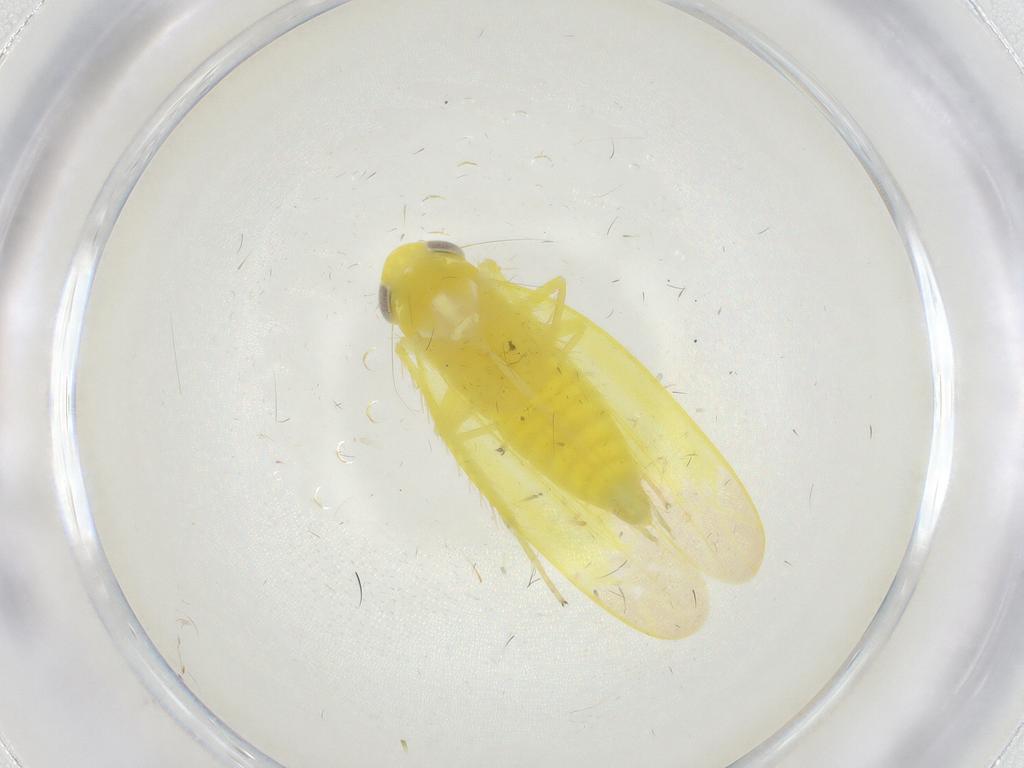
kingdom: Animalia
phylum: Arthropoda
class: Insecta
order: Hemiptera
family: Cicadellidae
